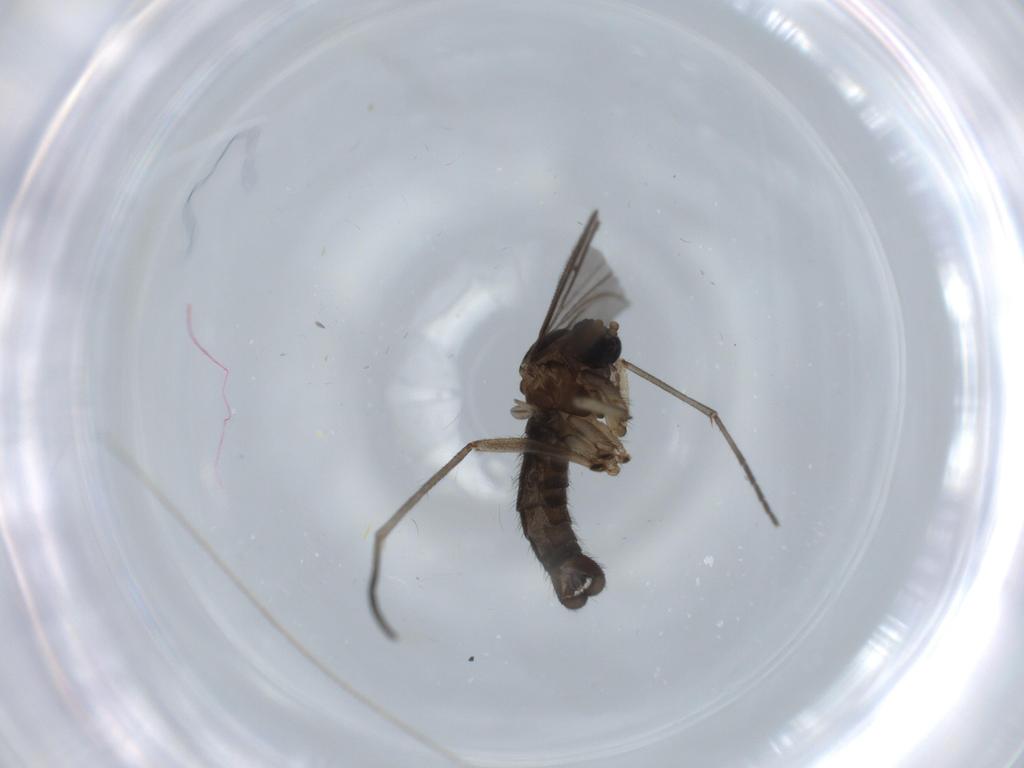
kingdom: Animalia
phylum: Arthropoda
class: Insecta
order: Diptera
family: Sciaridae
